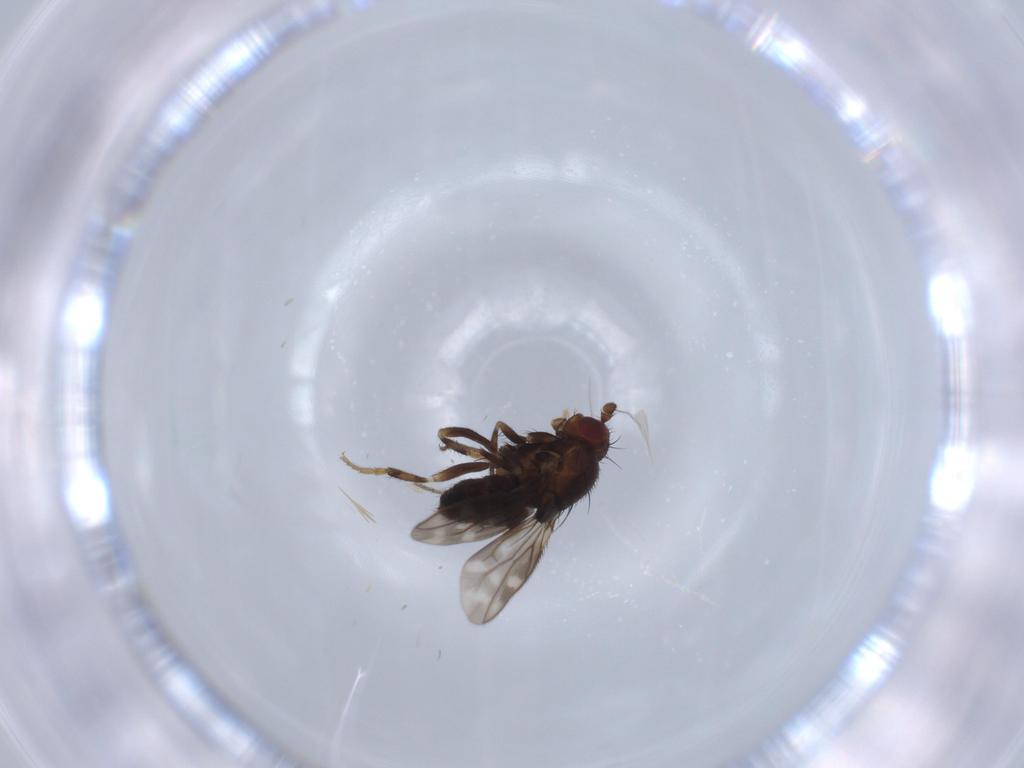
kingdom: Animalia
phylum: Arthropoda
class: Insecta
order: Diptera
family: Sphaeroceridae
